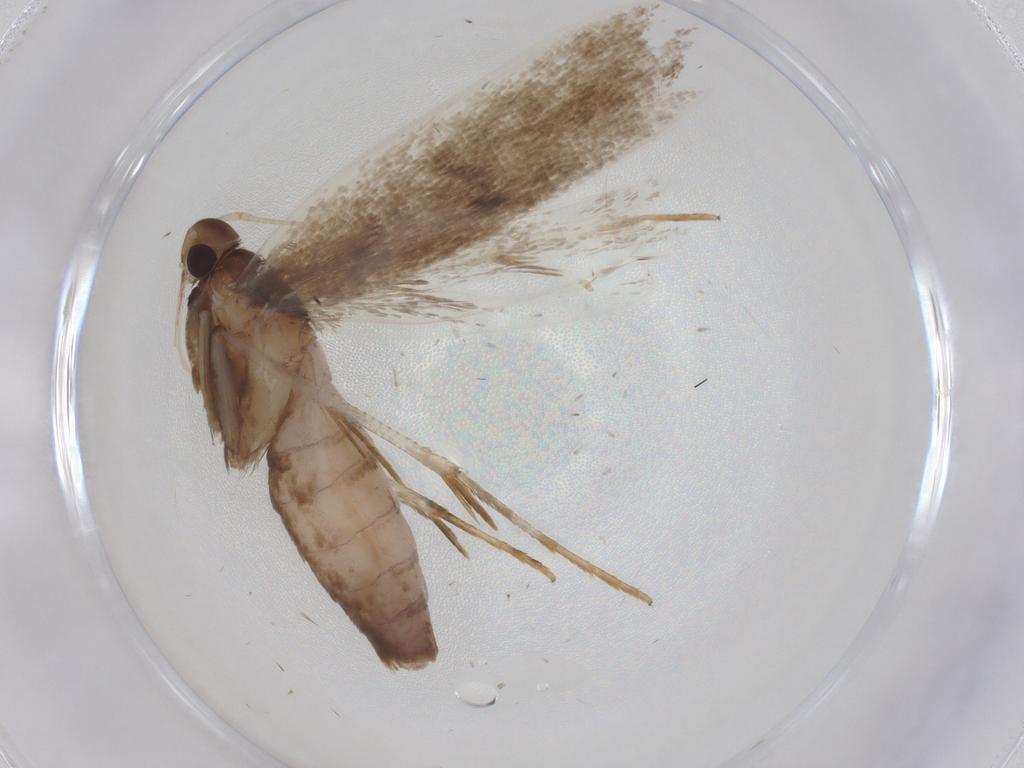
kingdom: Animalia
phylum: Arthropoda
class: Insecta
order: Lepidoptera
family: Gelechiidae
